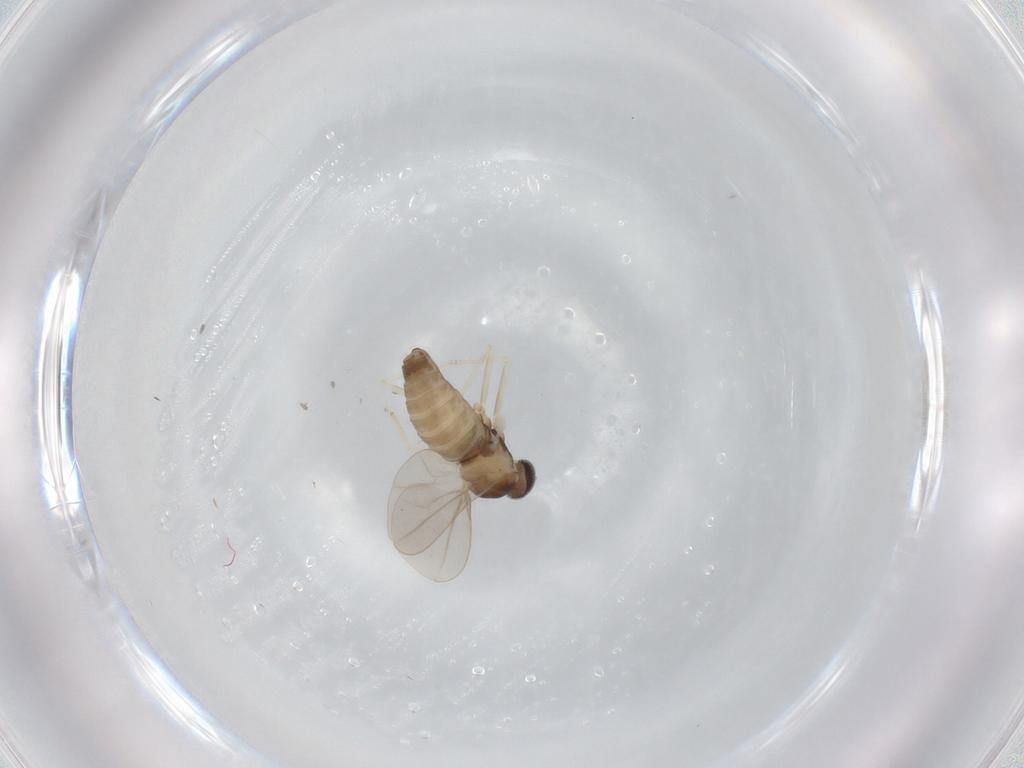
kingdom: Animalia
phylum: Arthropoda
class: Insecta
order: Diptera
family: Cecidomyiidae
